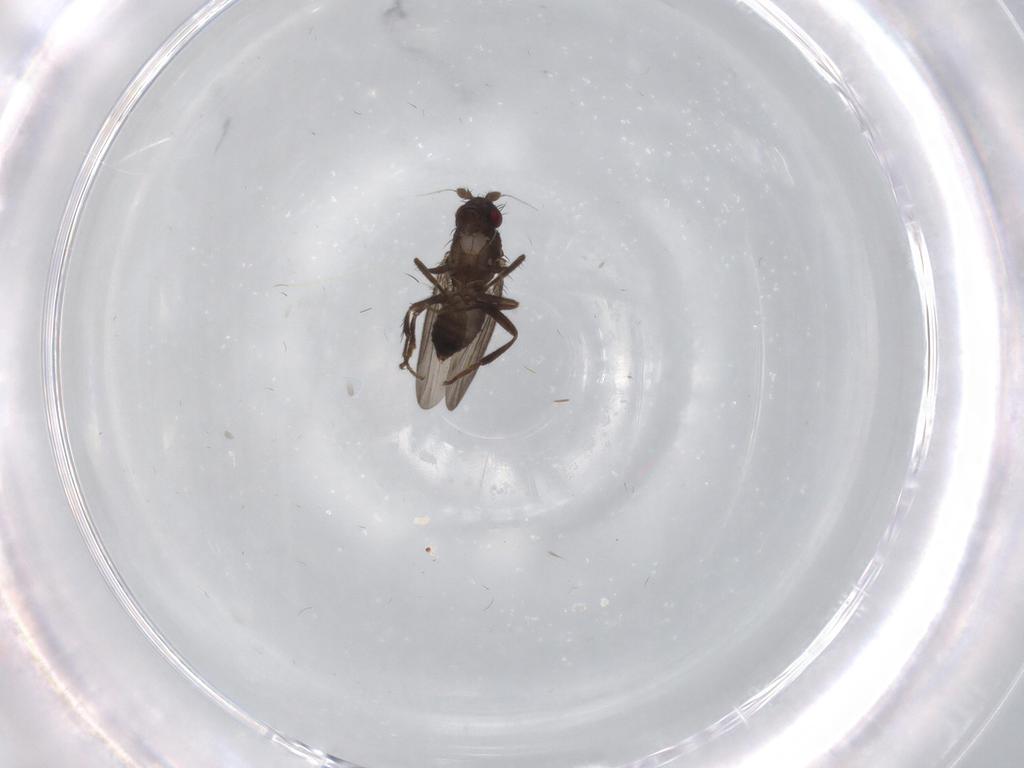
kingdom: Animalia
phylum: Arthropoda
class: Insecta
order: Diptera
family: Sphaeroceridae
